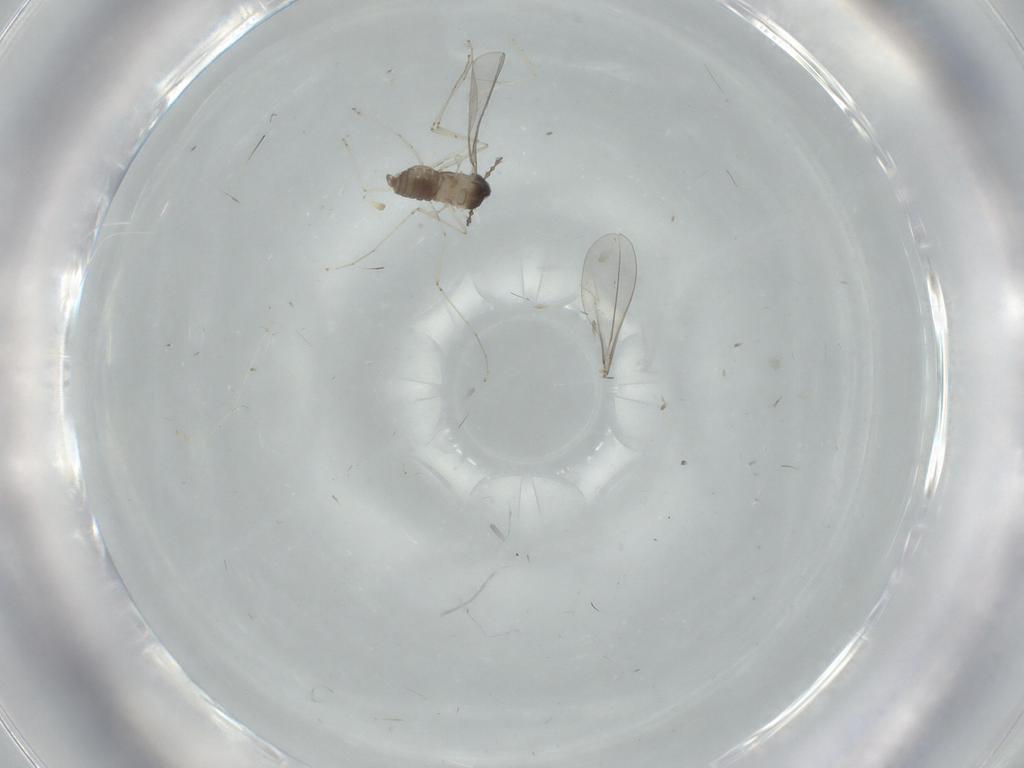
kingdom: Animalia
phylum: Arthropoda
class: Insecta
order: Diptera
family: Cecidomyiidae
